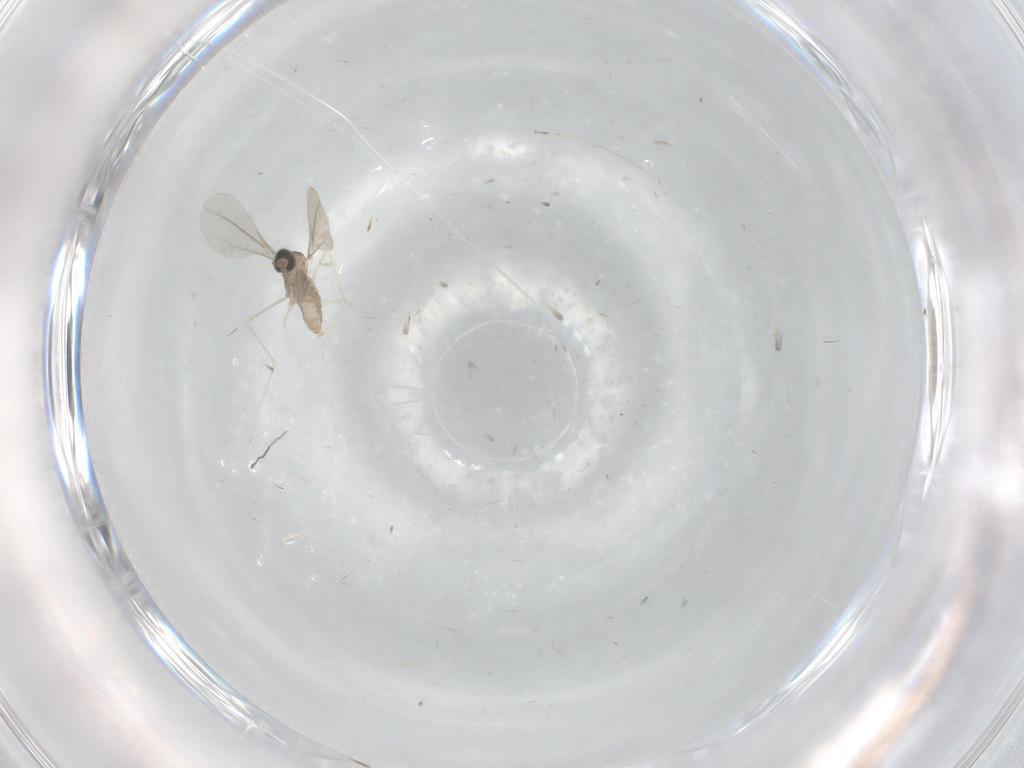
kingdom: Animalia
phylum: Arthropoda
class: Insecta
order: Diptera
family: Cecidomyiidae
